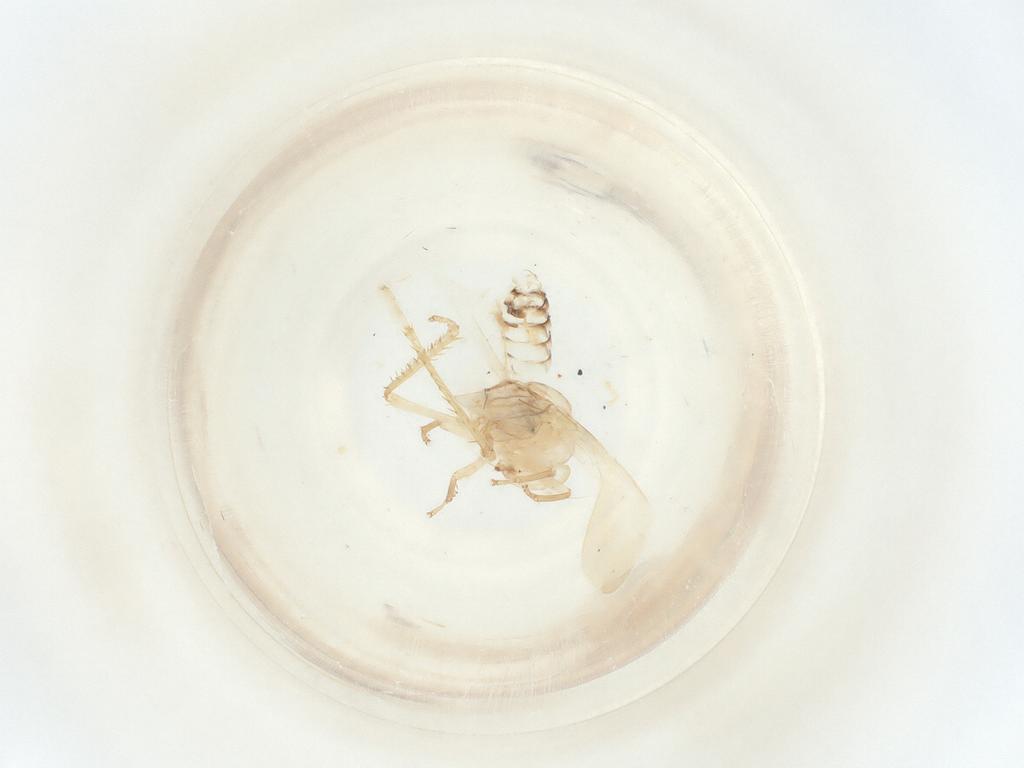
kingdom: Animalia
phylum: Arthropoda
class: Insecta
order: Hemiptera
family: Cicadellidae
